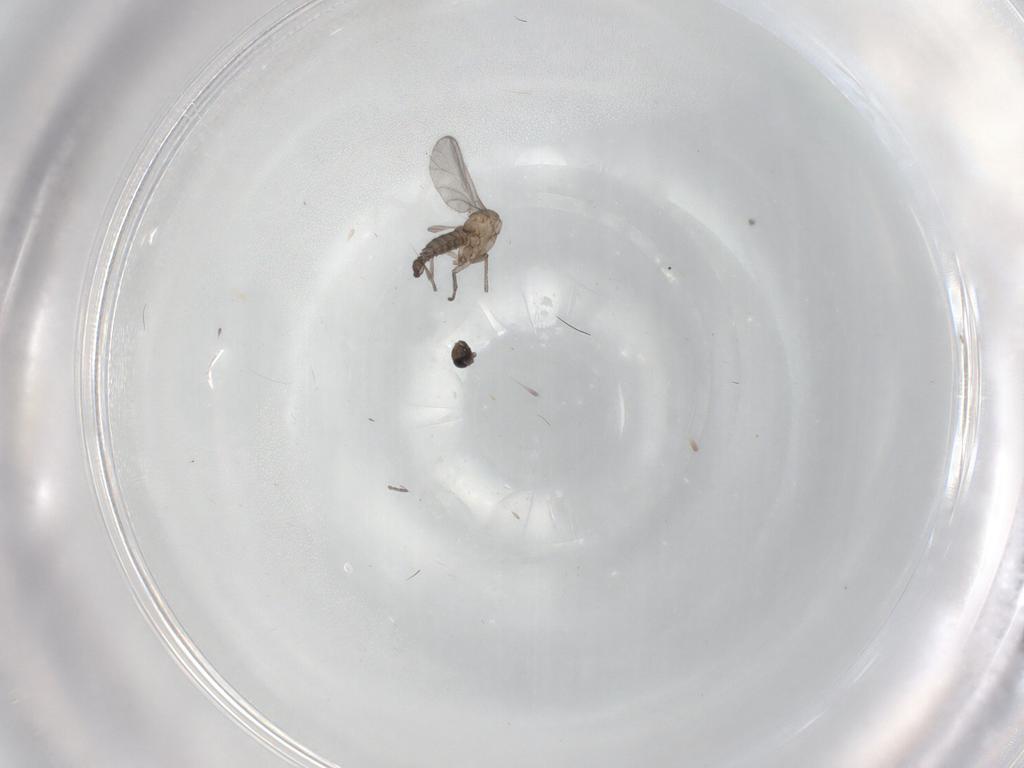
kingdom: Animalia
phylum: Arthropoda
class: Insecta
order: Diptera
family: Sciaridae
